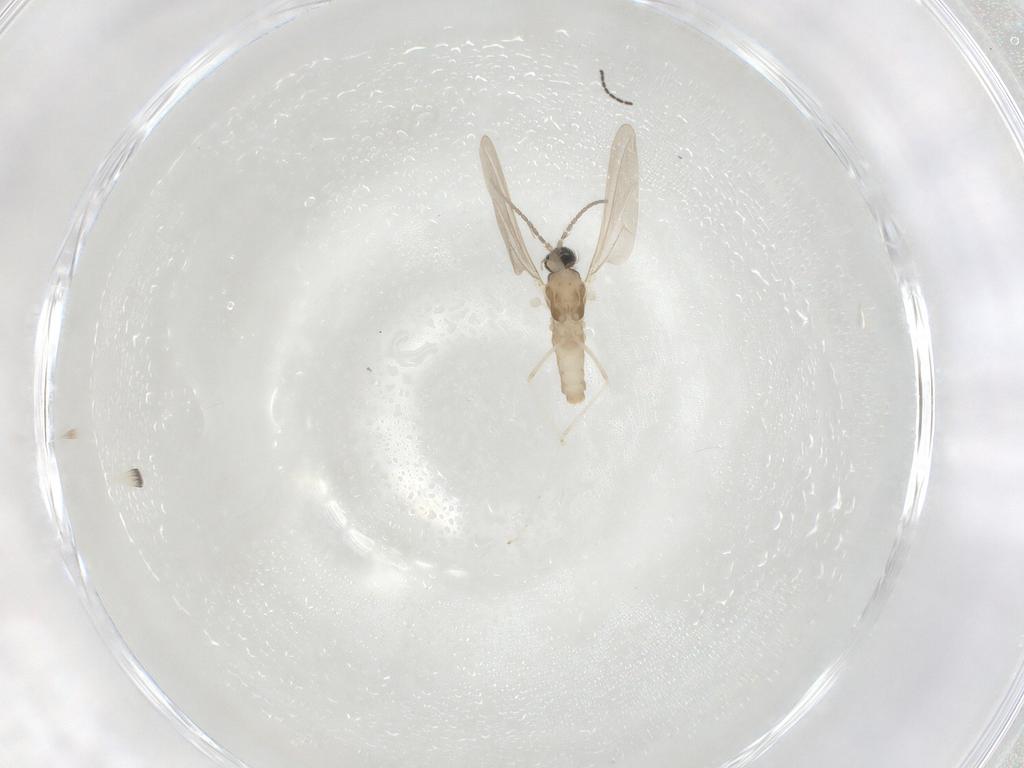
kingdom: Animalia
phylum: Arthropoda
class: Insecta
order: Diptera
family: Cecidomyiidae
